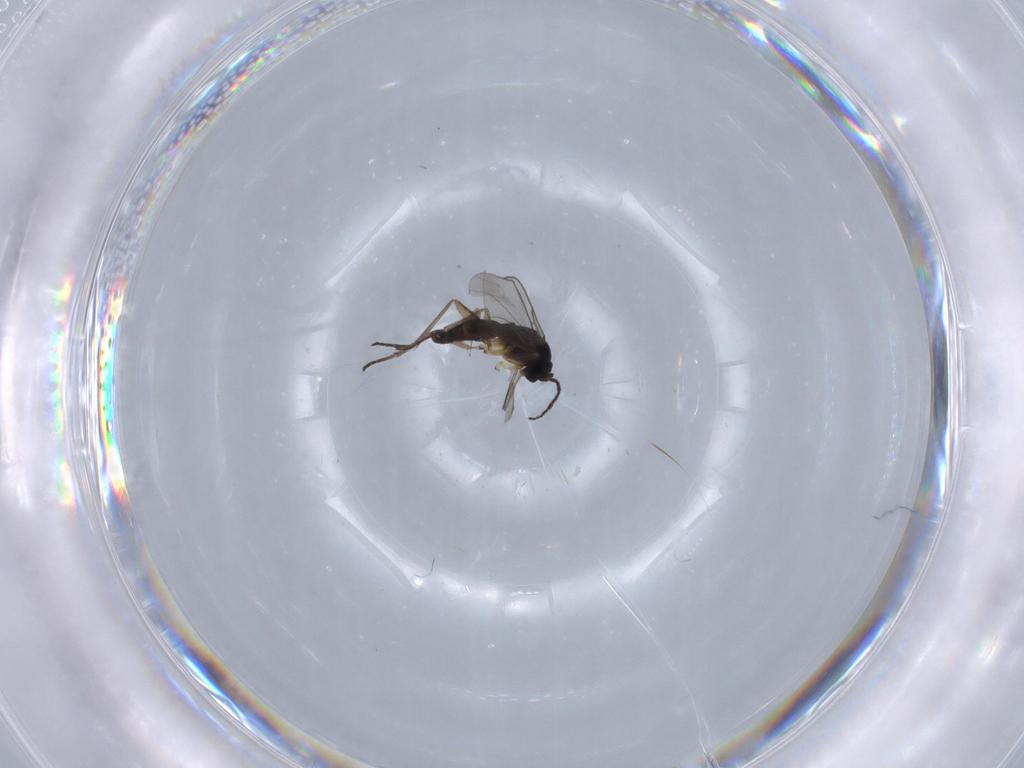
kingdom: Animalia
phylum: Arthropoda
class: Insecta
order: Diptera
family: Sciaridae
